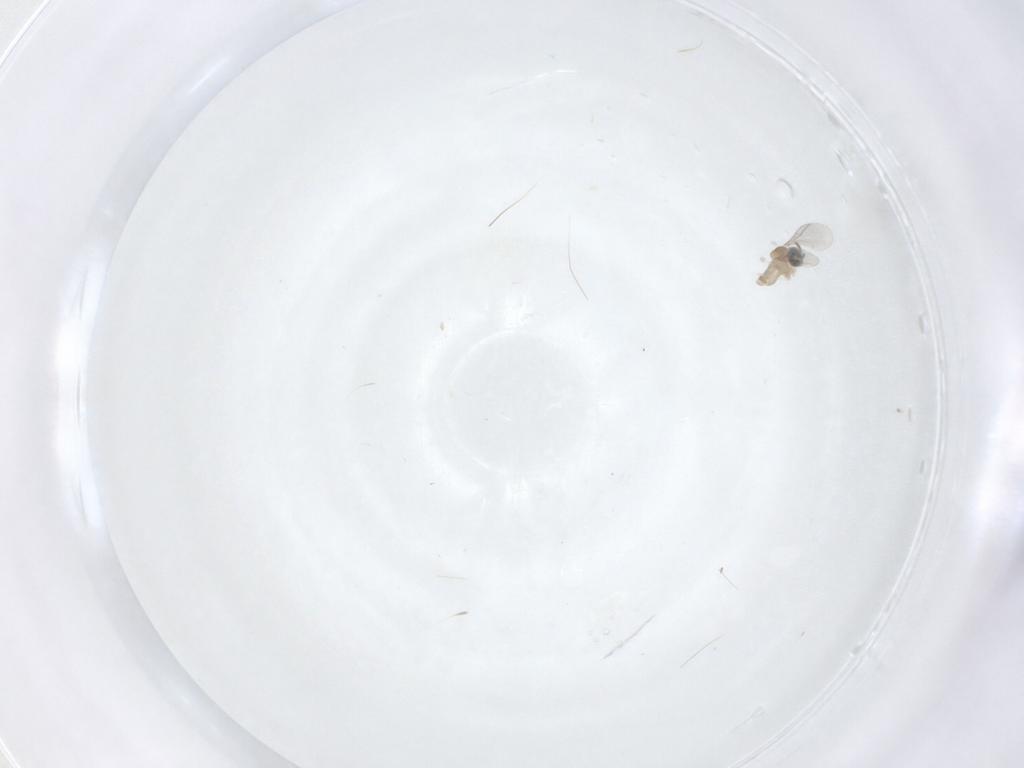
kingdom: Animalia
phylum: Arthropoda
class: Insecta
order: Diptera
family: Cecidomyiidae
